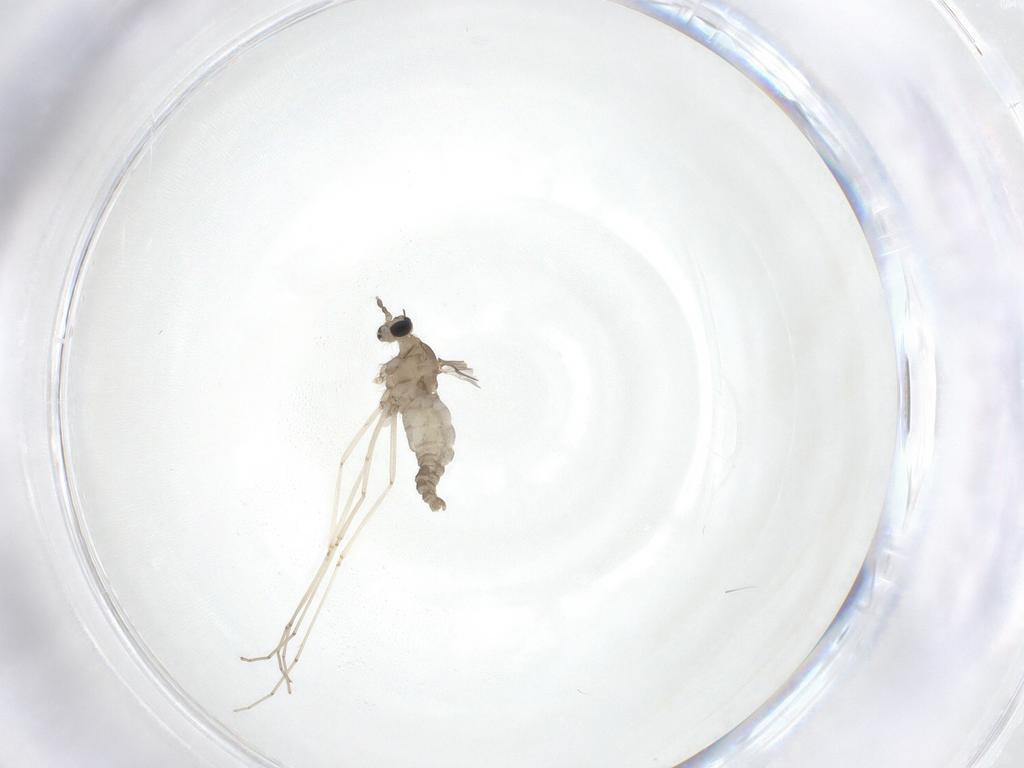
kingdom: Animalia
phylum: Arthropoda
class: Insecta
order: Diptera
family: Cecidomyiidae
